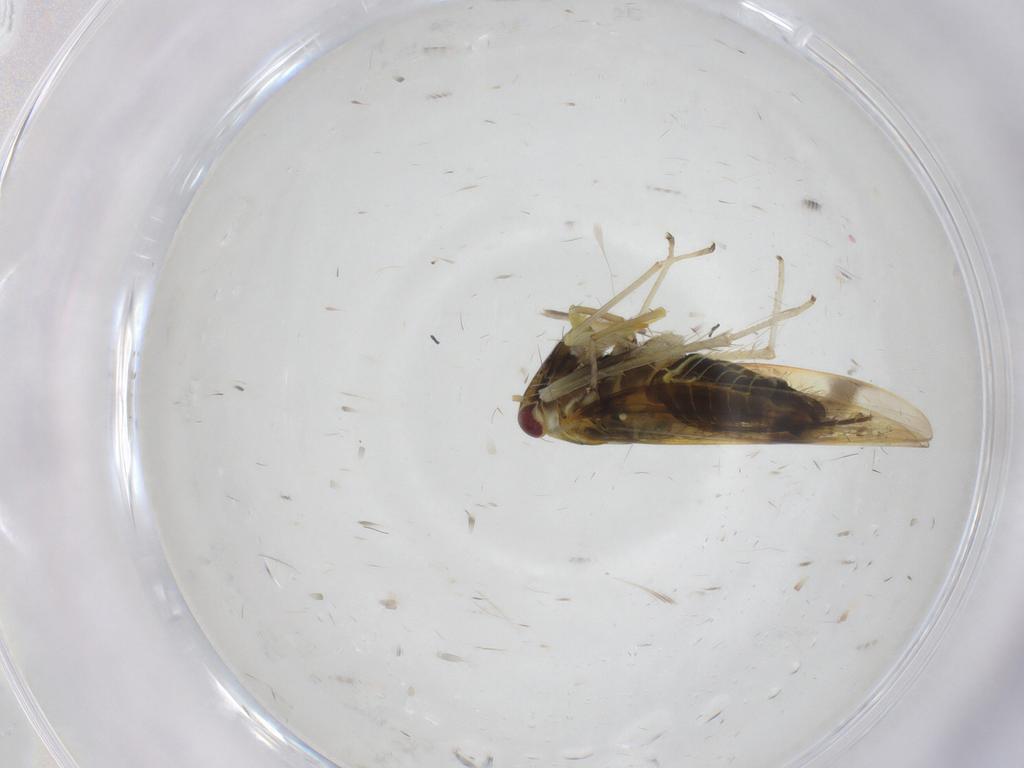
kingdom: Animalia
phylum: Arthropoda
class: Insecta
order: Hemiptera
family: Cicadellidae
